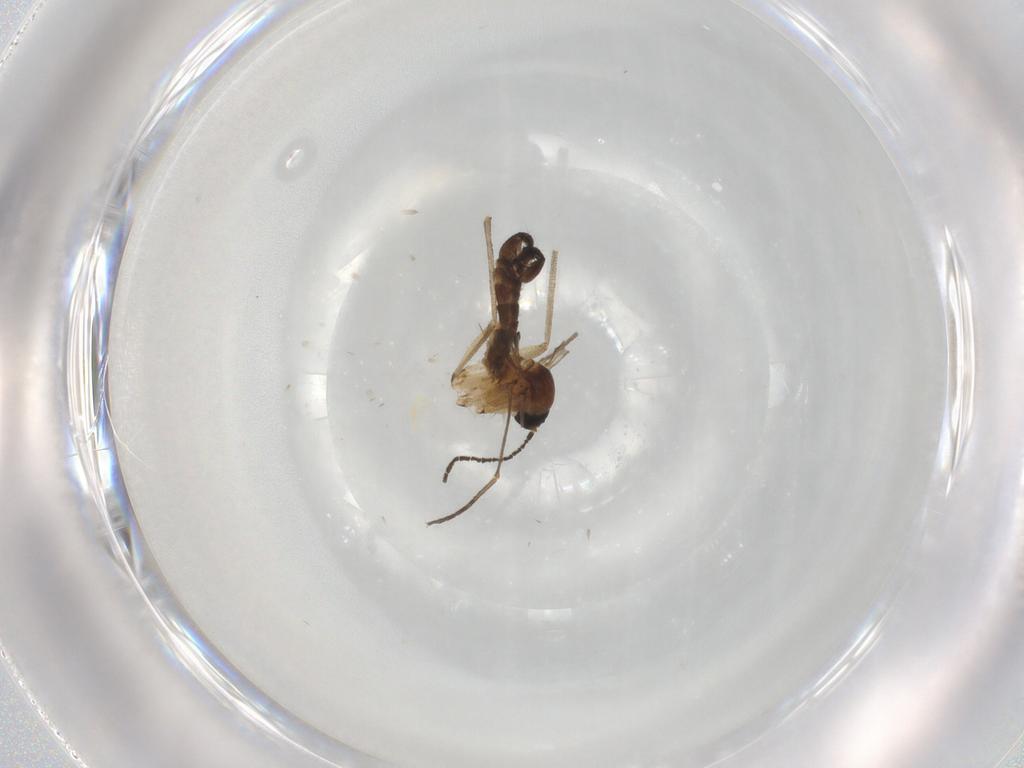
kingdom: Animalia
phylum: Arthropoda
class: Insecta
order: Diptera
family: Sciaridae
